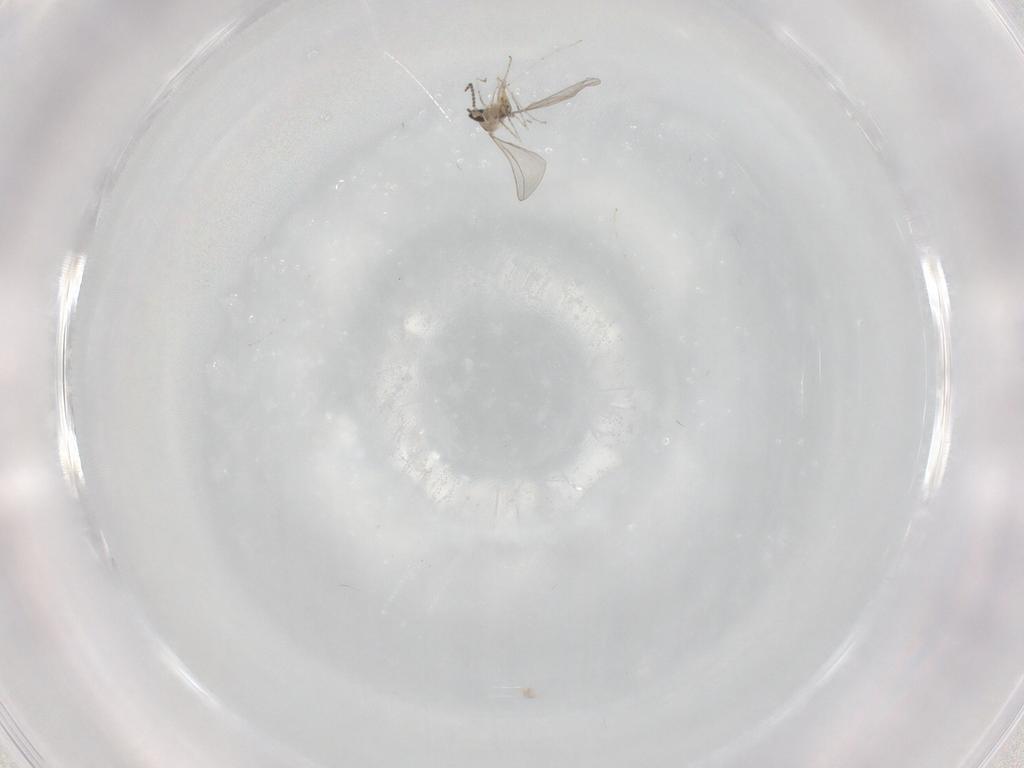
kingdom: Animalia
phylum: Arthropoda
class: Insecta
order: Diptera
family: Cecidomyiidae
